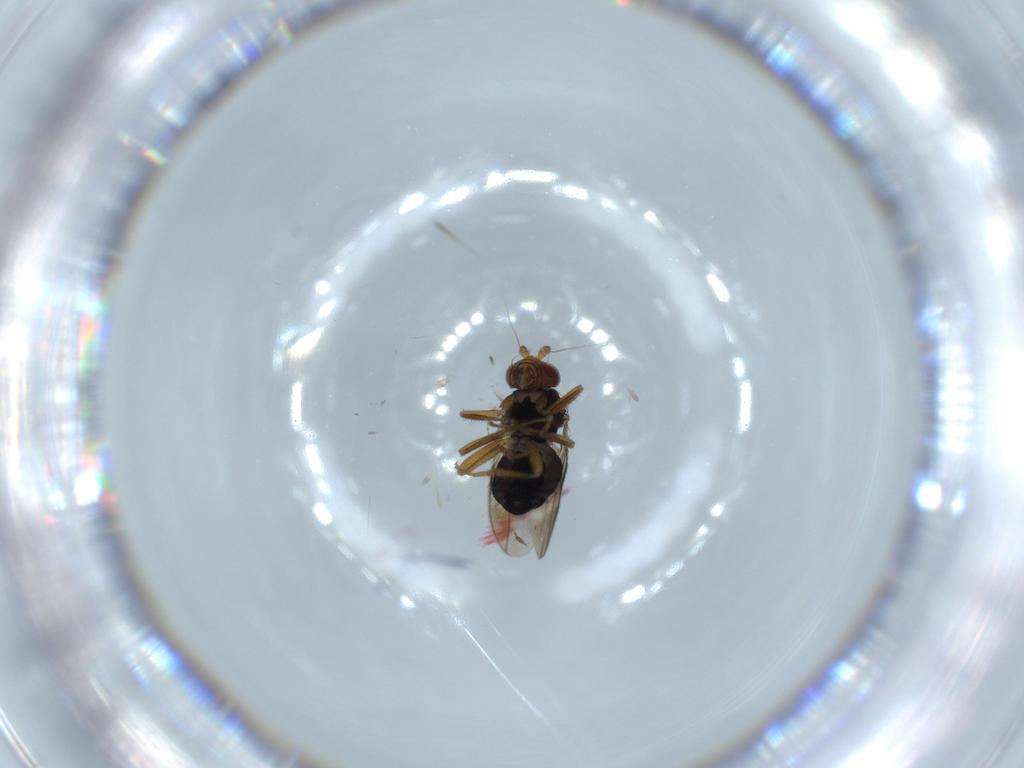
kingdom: Animalia
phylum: Arthropoda
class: Insecta
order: Diptera
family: Sphaeroceridae
